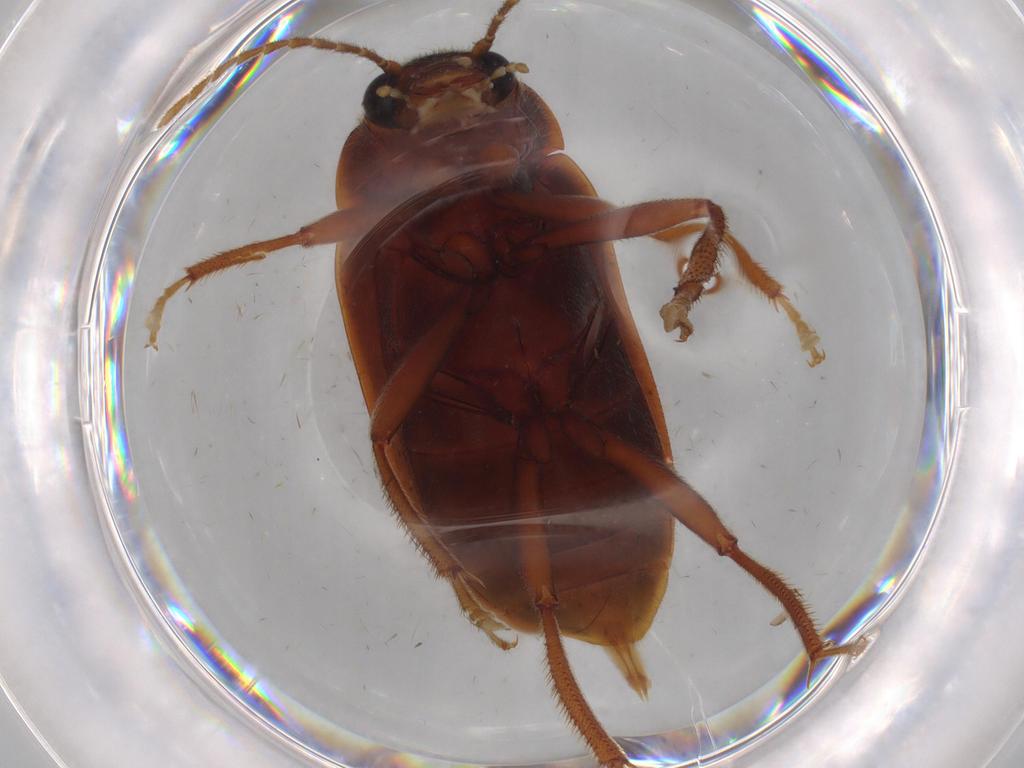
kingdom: Animalia
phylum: Arthropoda
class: Insecta
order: Coleoptera
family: Ptilodactylidae
